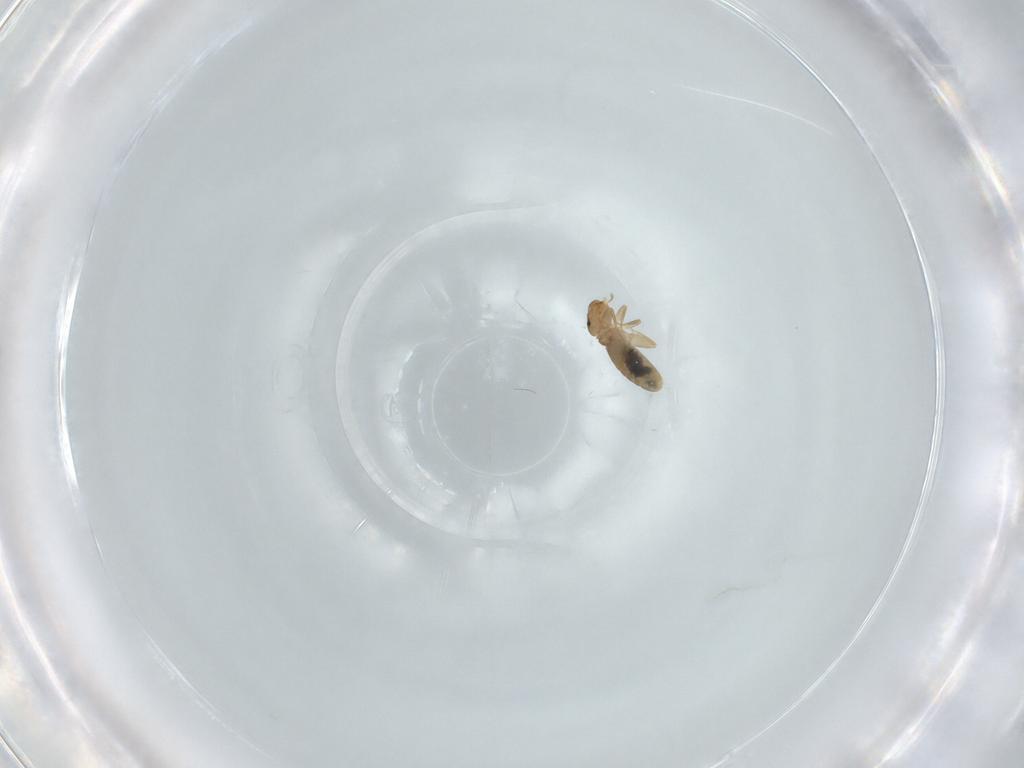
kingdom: Animalia
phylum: Arthropoda
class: Insecta
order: Psocodea
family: Liposcelididae
